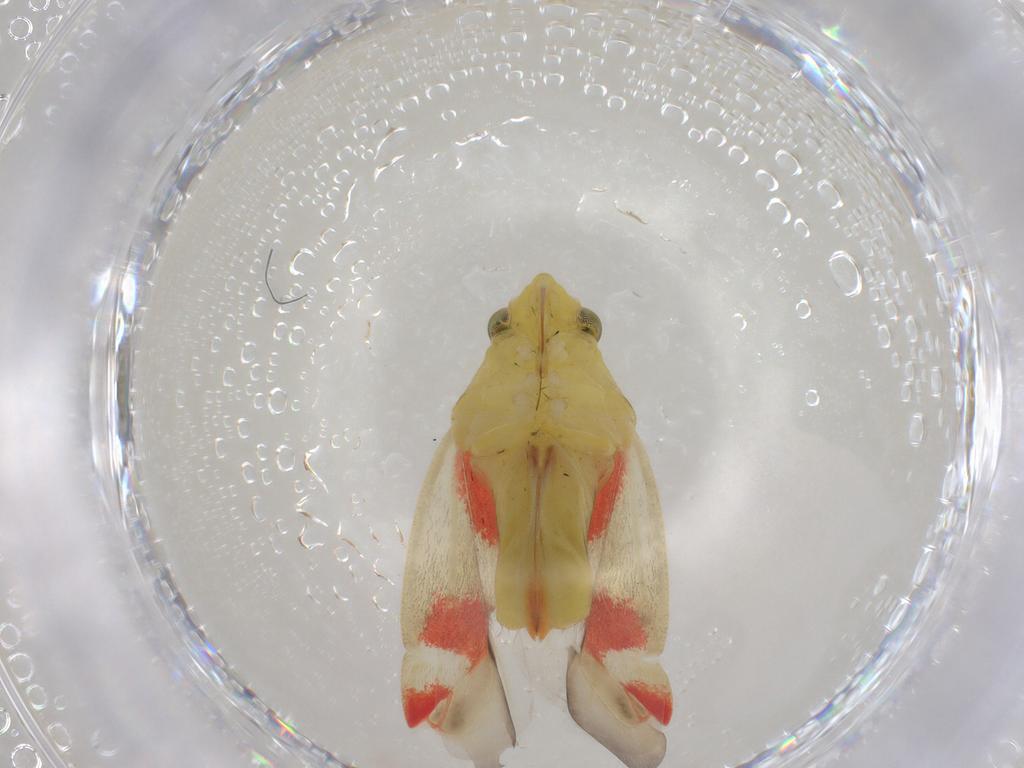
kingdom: Animalia
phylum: Arthropoda
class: Insecta
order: Hemiptera
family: Miridae
